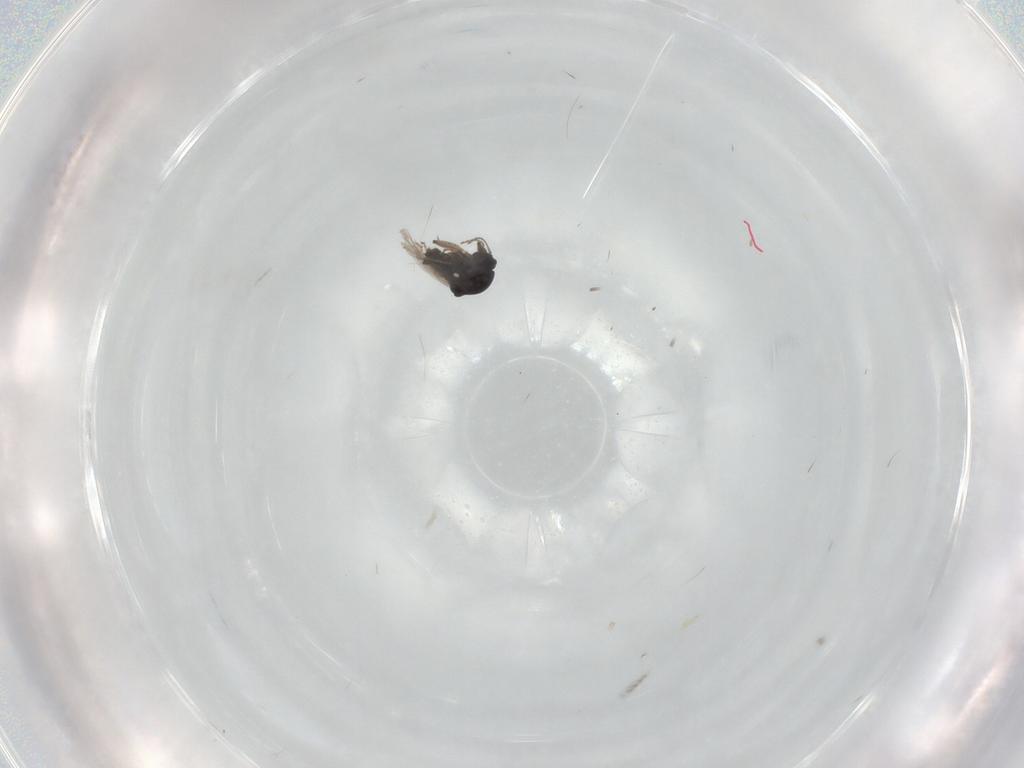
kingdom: Animalia
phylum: Arthropoda
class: Insecta
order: Diptera
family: Ceratopogonidae
